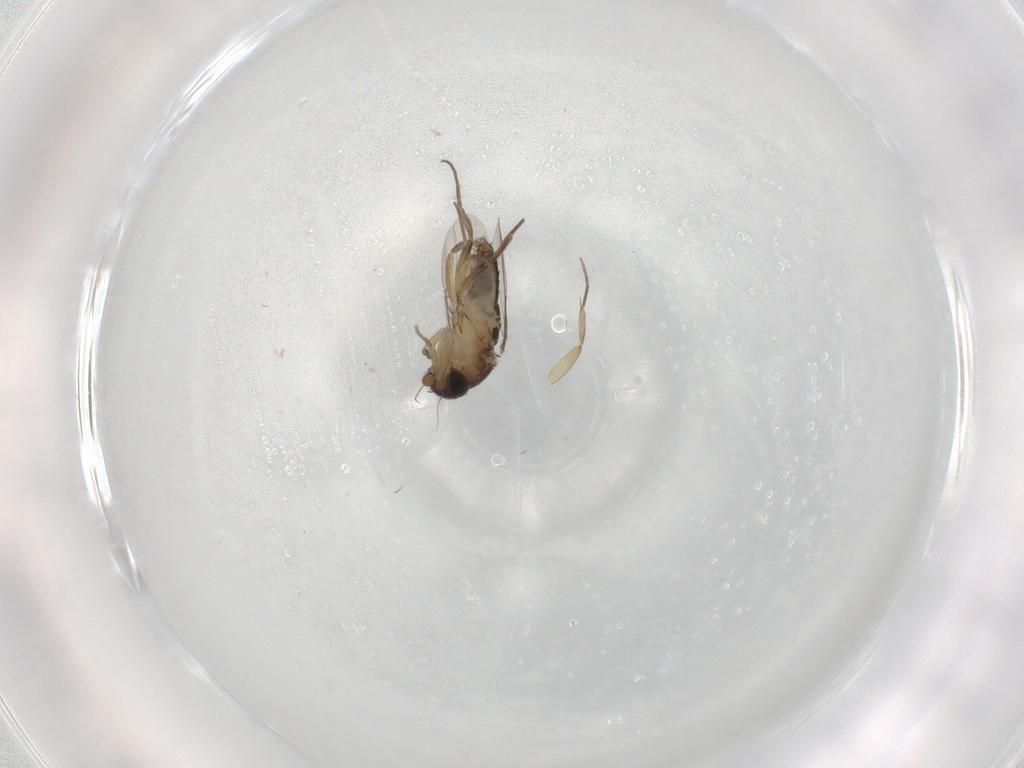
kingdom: Animalia
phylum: Arthropoda
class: Insecta
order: Diptera
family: Phoridae
